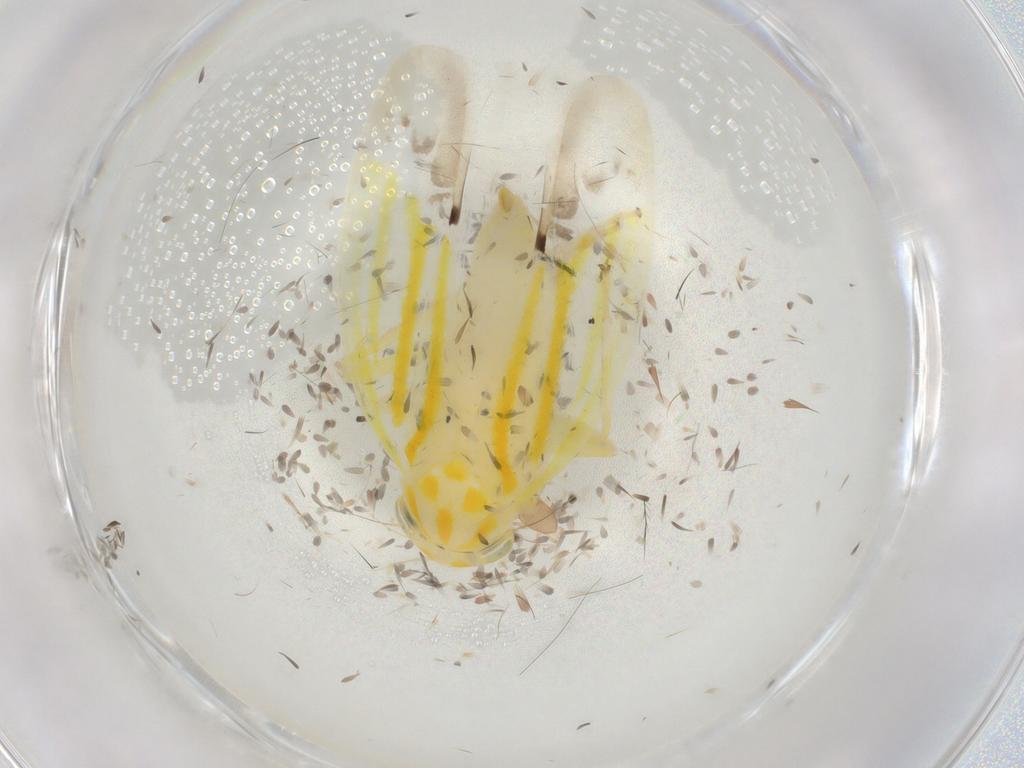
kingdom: Animalia
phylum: Arthropoda
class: Insecta
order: Hemiptera
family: Cicadellidae
